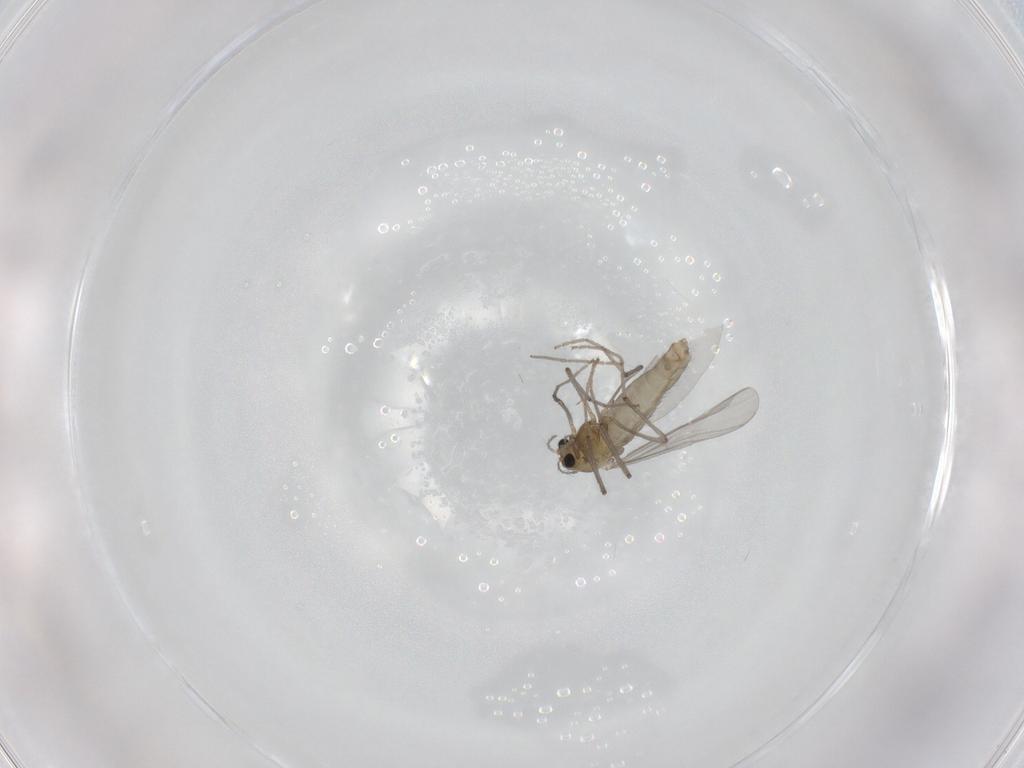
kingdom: Animalia
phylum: Arthropoda
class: Insecta
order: Diptera
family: Chironomidae
